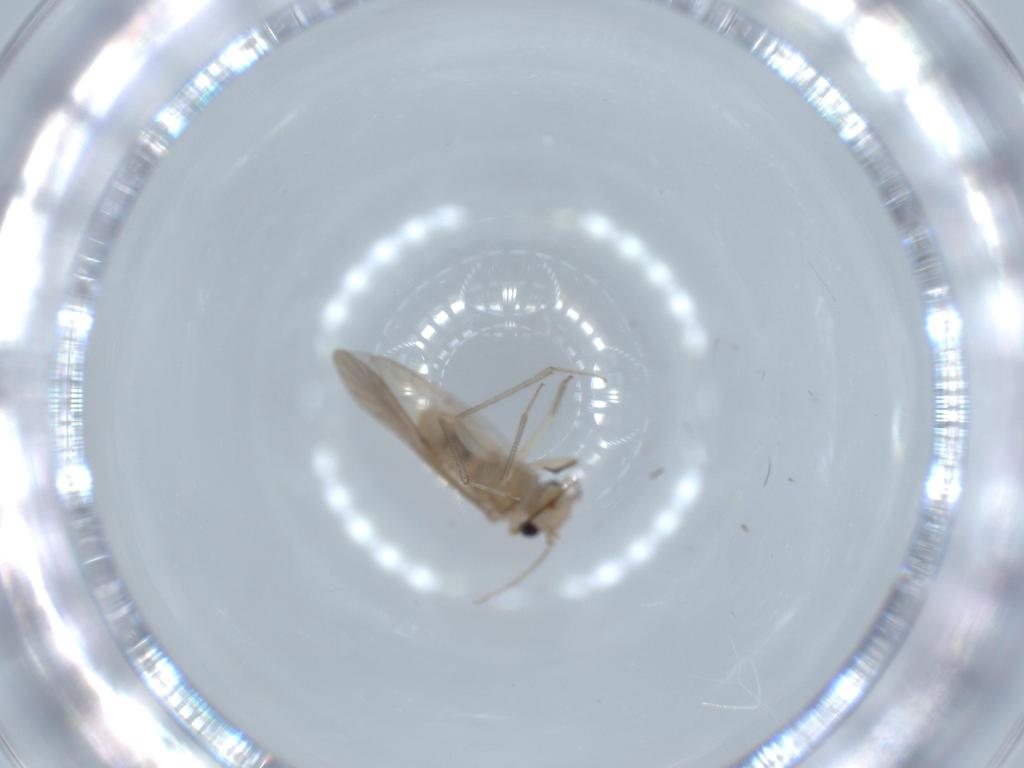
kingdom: Animalia
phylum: Arthropoda
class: Insecta
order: Psocodea
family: Caeciliusidae
